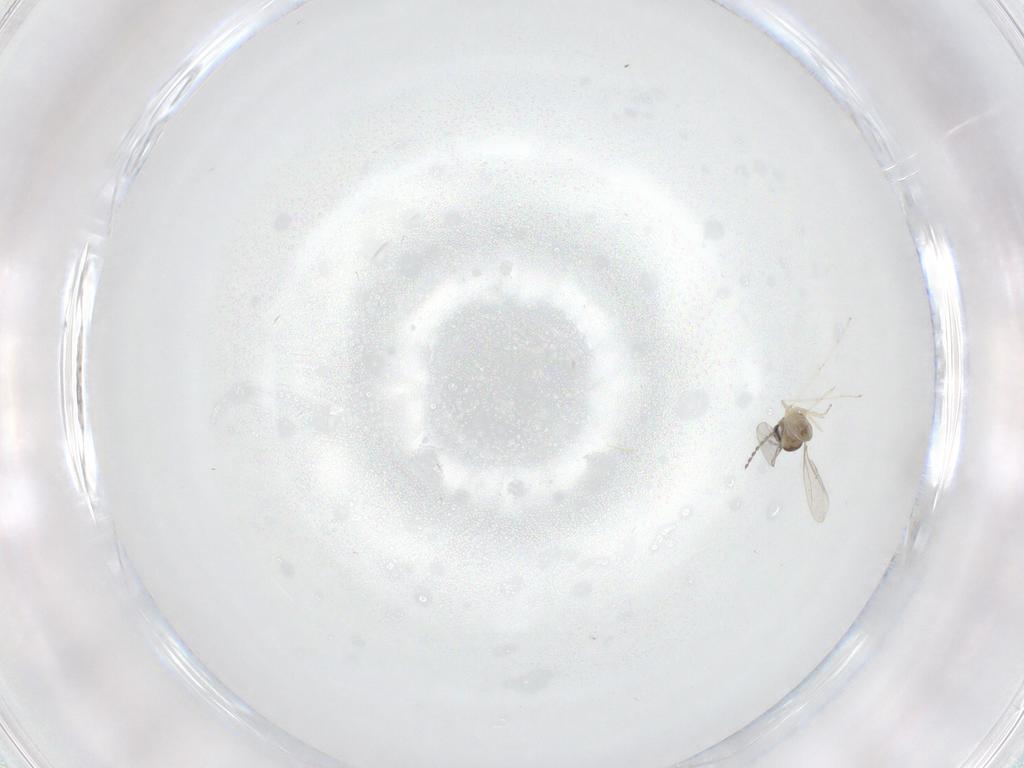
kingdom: Animalia
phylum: Arthropoda
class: Insecta
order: Diptera
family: Cecidomyiidae
